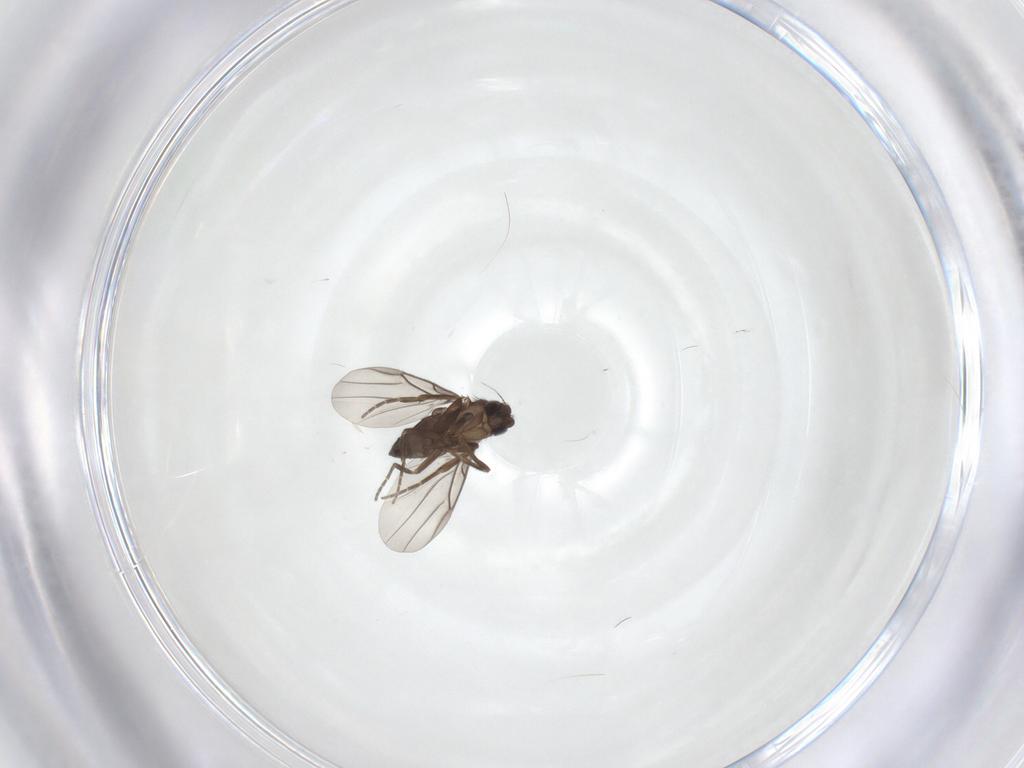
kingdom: Animalia
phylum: Arthropoda
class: Insecta
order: Diptera
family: Phoridae
